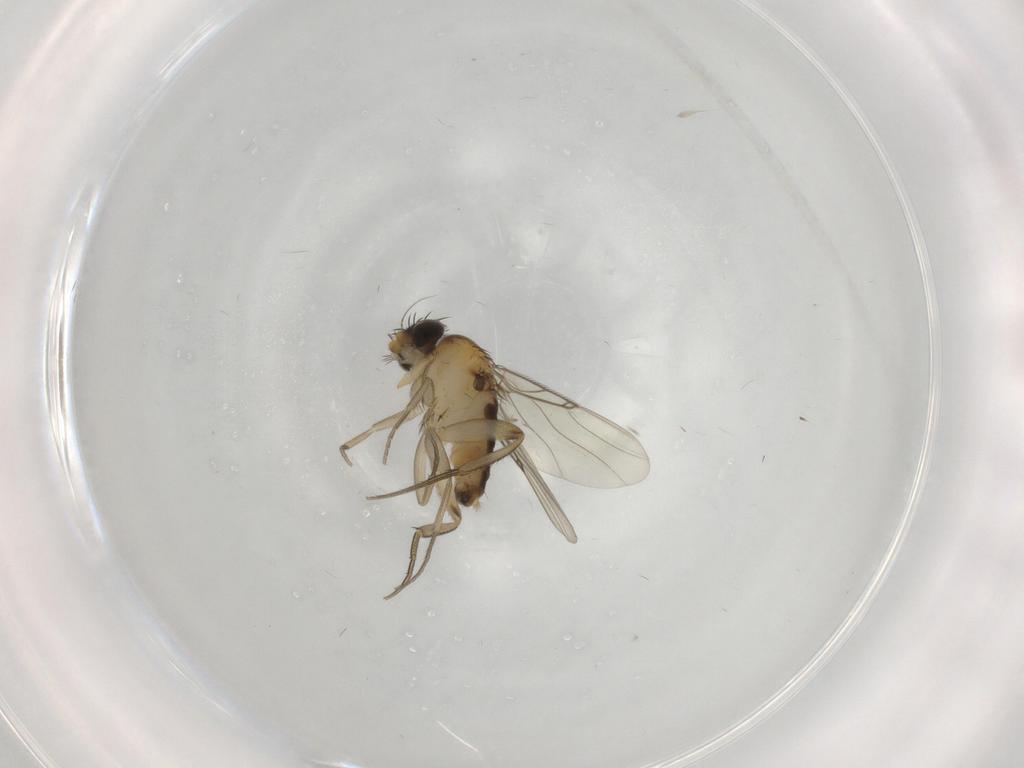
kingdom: Animalia
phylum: Arthropoda
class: Insecta
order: Diptera
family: Phoridae
